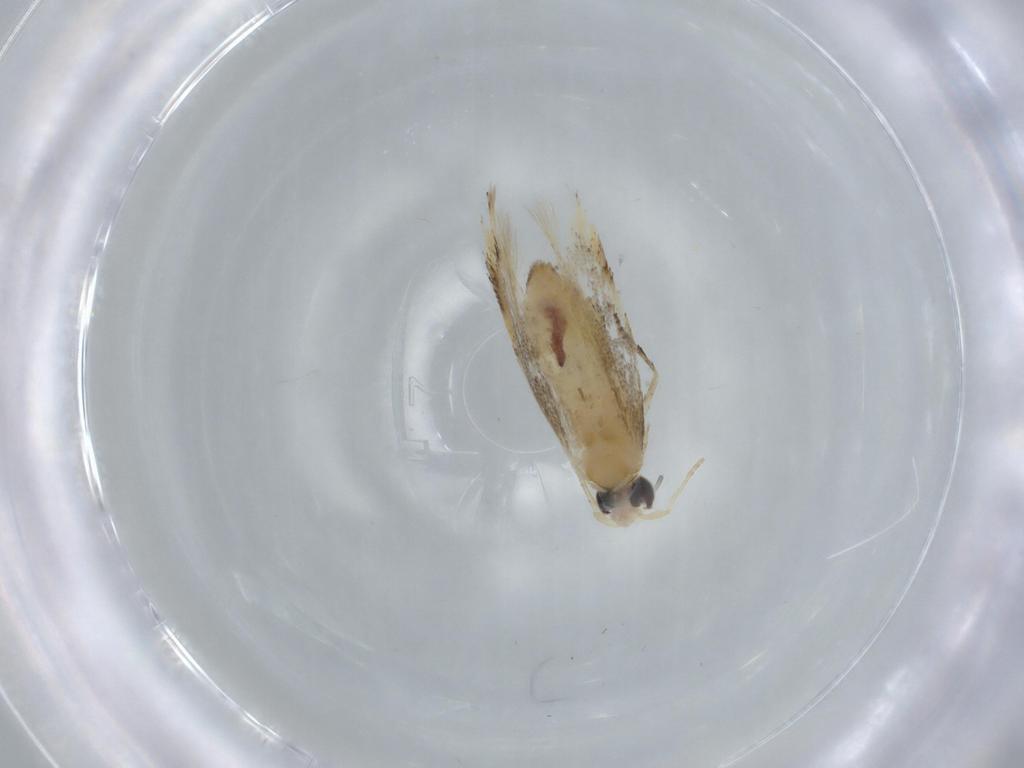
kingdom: Animalia
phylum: Arthropoda
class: Insecta
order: Lepidoptera
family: Bucculatricidae
